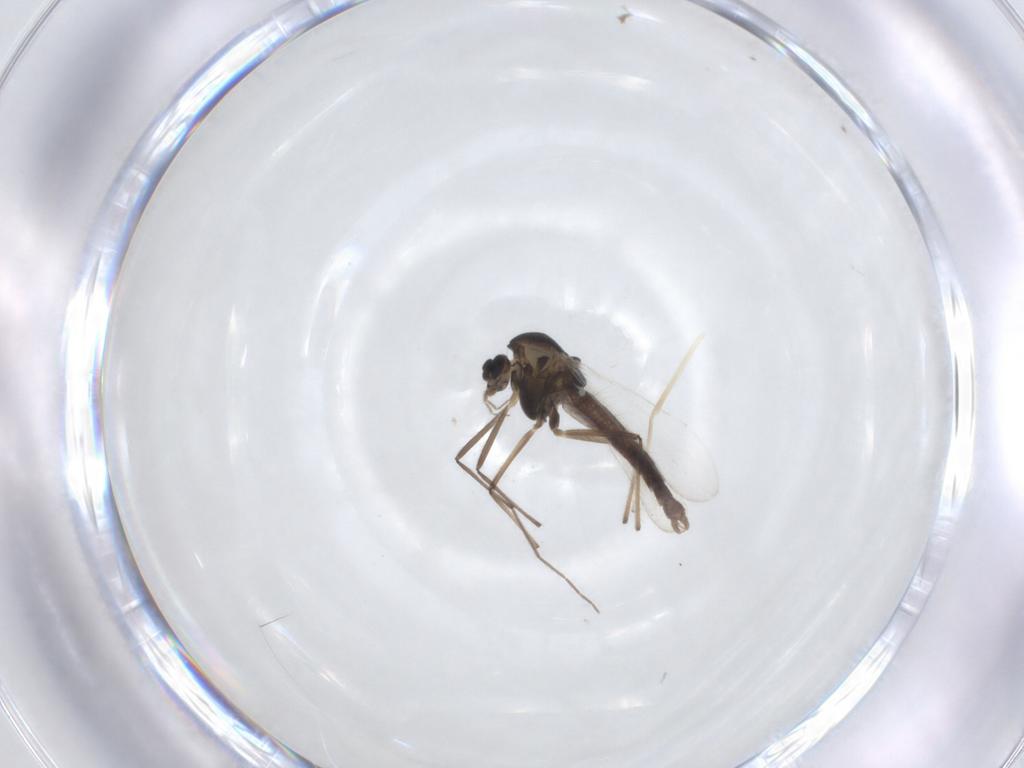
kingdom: Animalia
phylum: Arthropoda
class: Insecta
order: Diptera
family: Chironomidae
